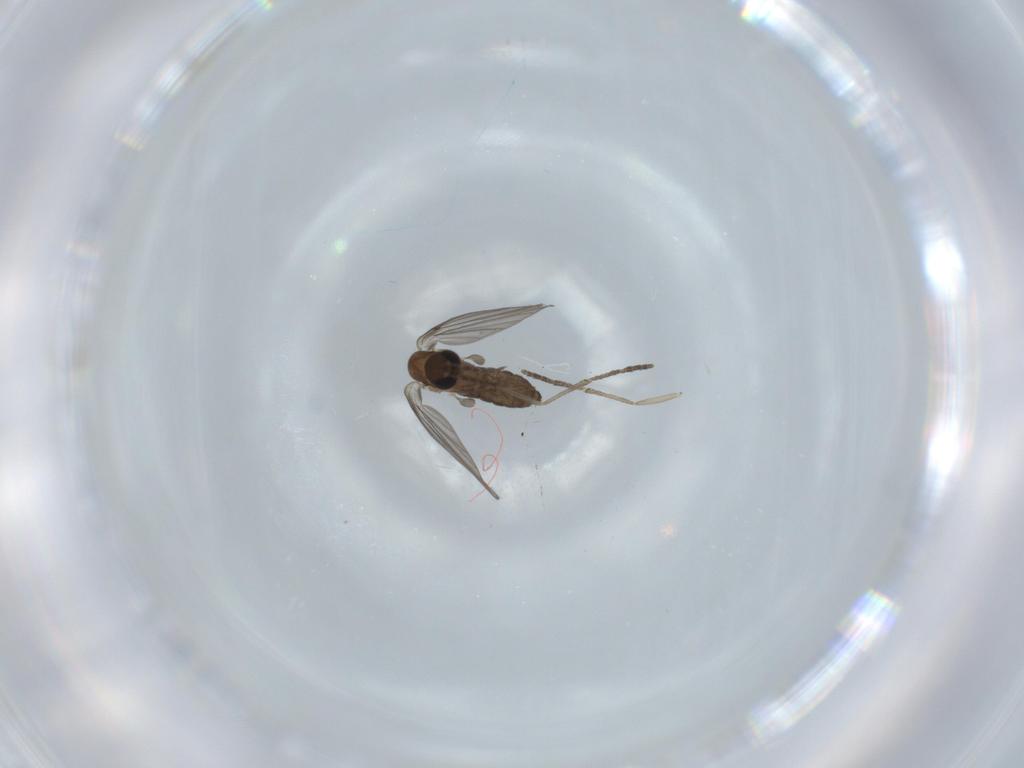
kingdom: Animalia
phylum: Arthropoda
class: Insecta
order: Diptera
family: Psychodidae
